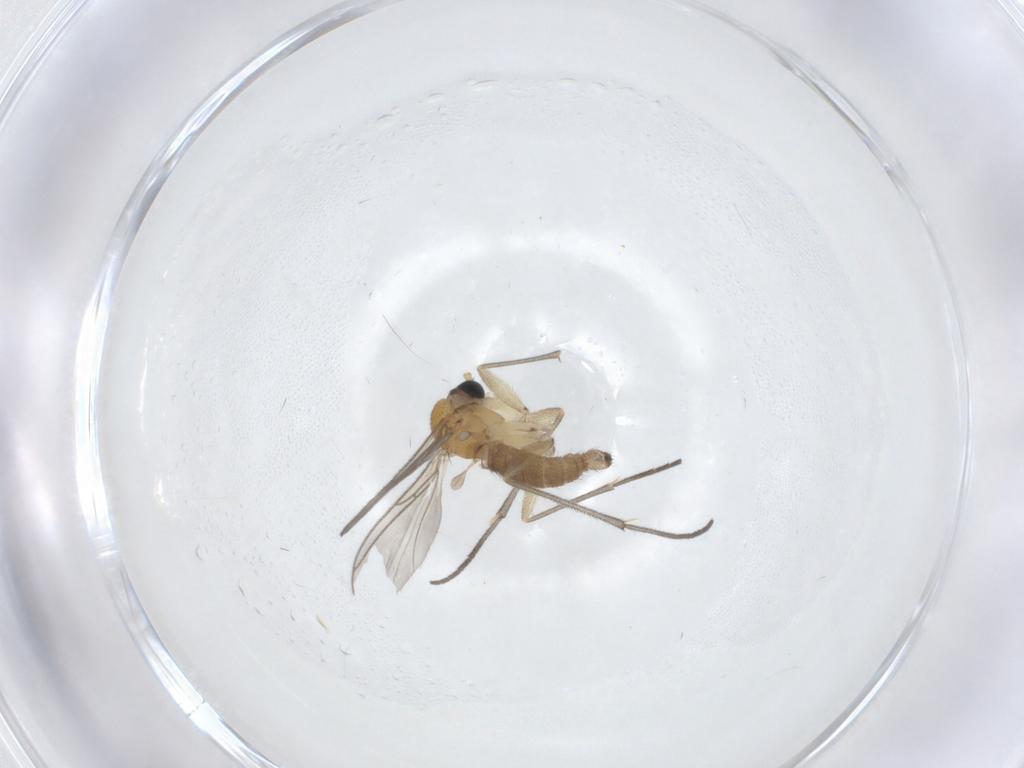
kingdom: Animalia
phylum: Arthropoda
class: Insecta
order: Diptera
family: Sciaridae
